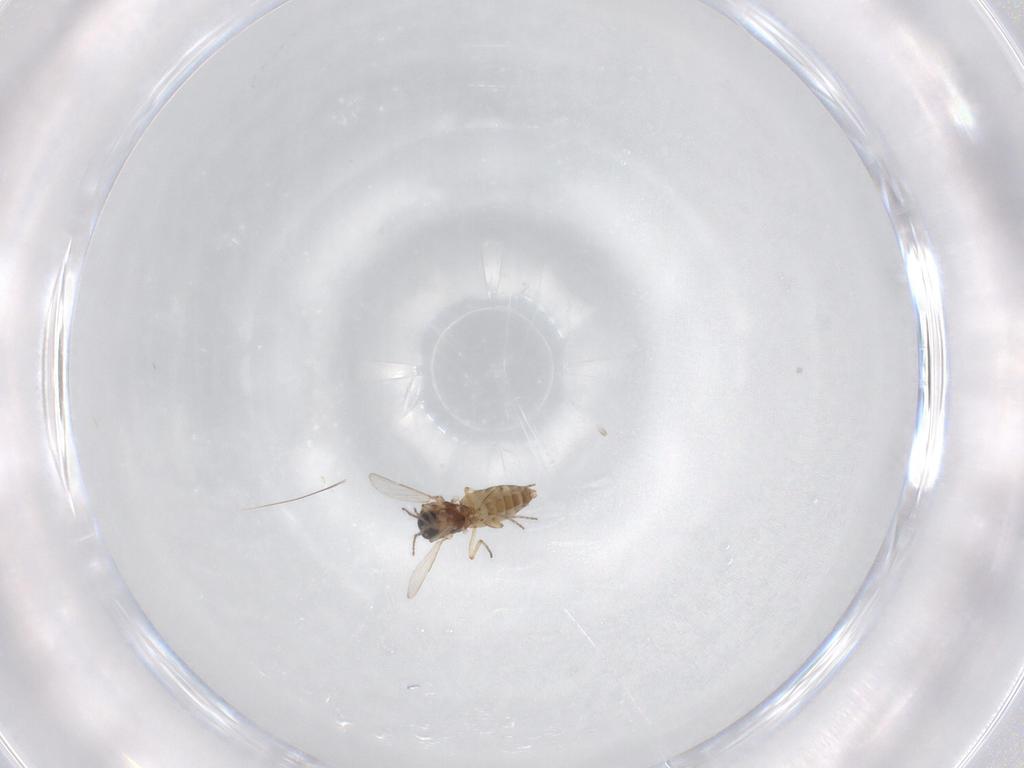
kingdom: Animalia
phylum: Arthropoda
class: Insecta
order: Diptera
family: Ceratopogonidae
